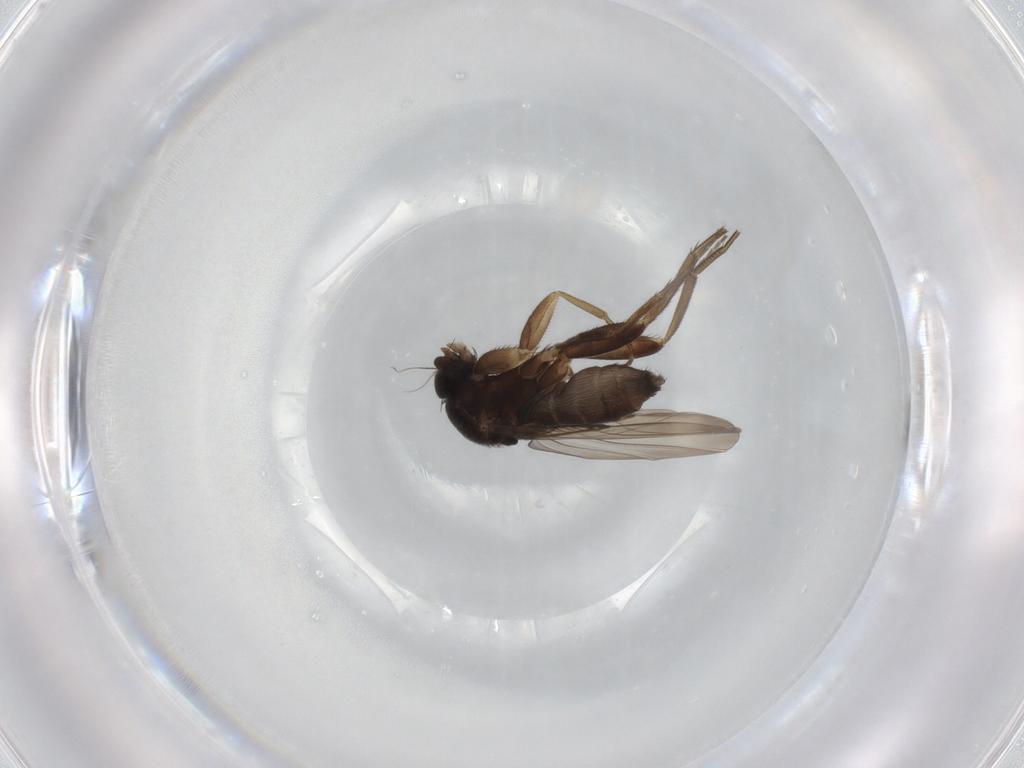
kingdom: Animalia
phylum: Arthropoda
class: Insecta
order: Diptera
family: Phoridae
